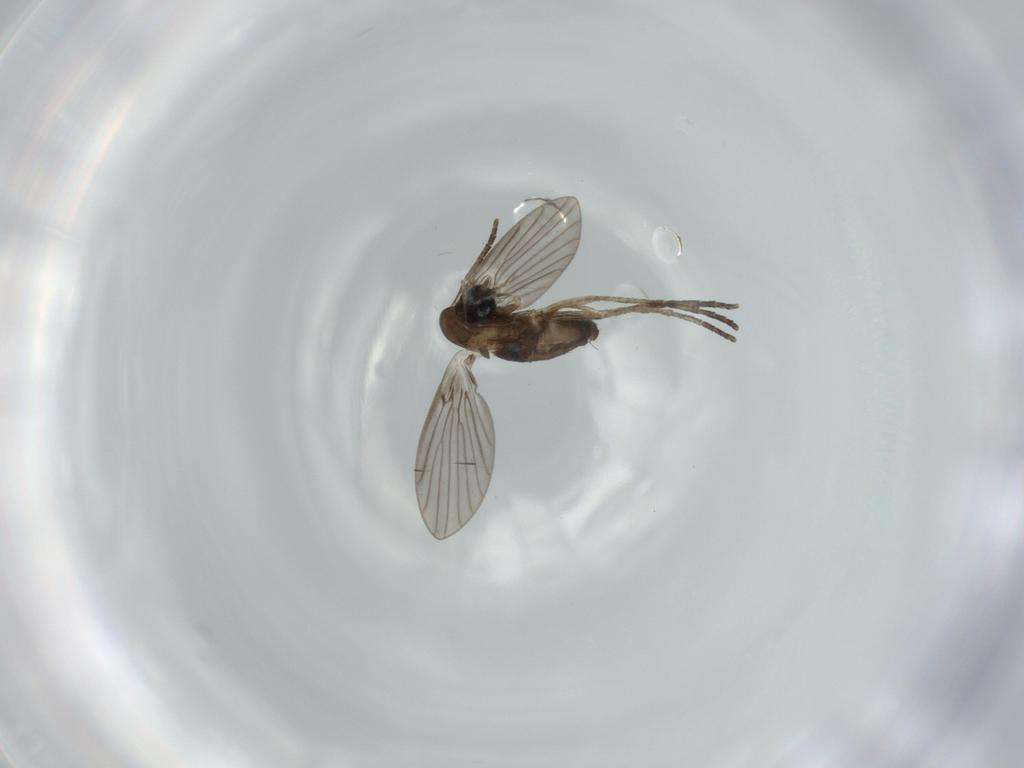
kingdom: Animalia
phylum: Arthropoda
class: Insecta
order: Diptera
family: Psychodidae
